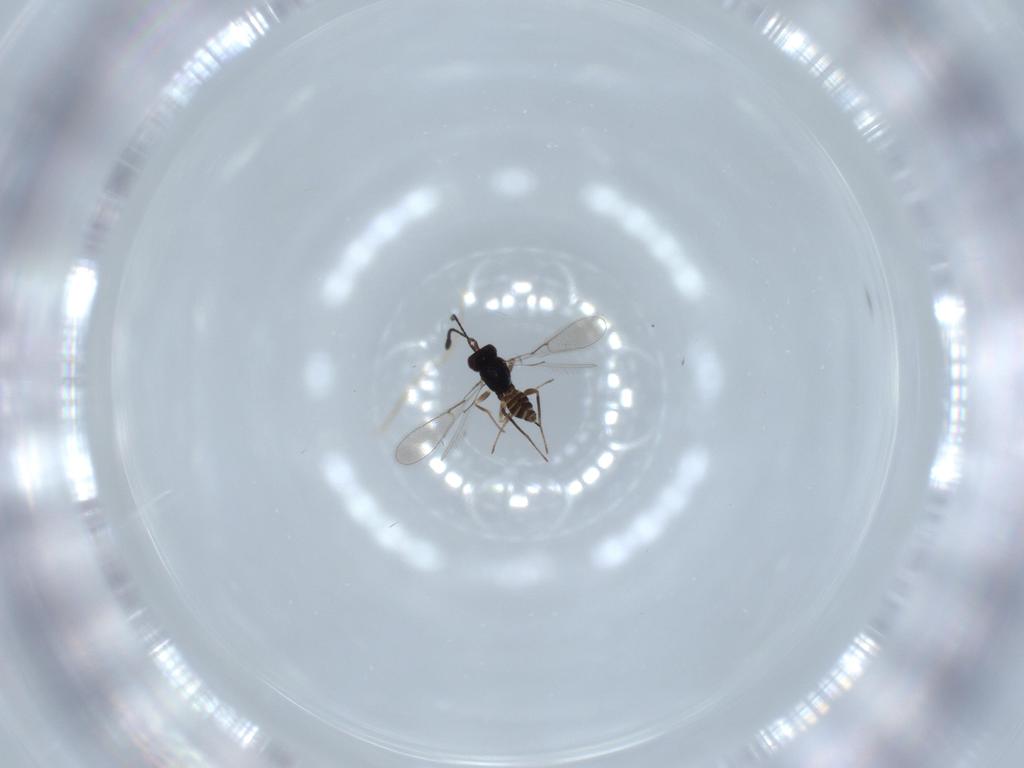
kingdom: Animalia
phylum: Arthropoda
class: Insecta
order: Hymenoptera
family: Mymaridae
